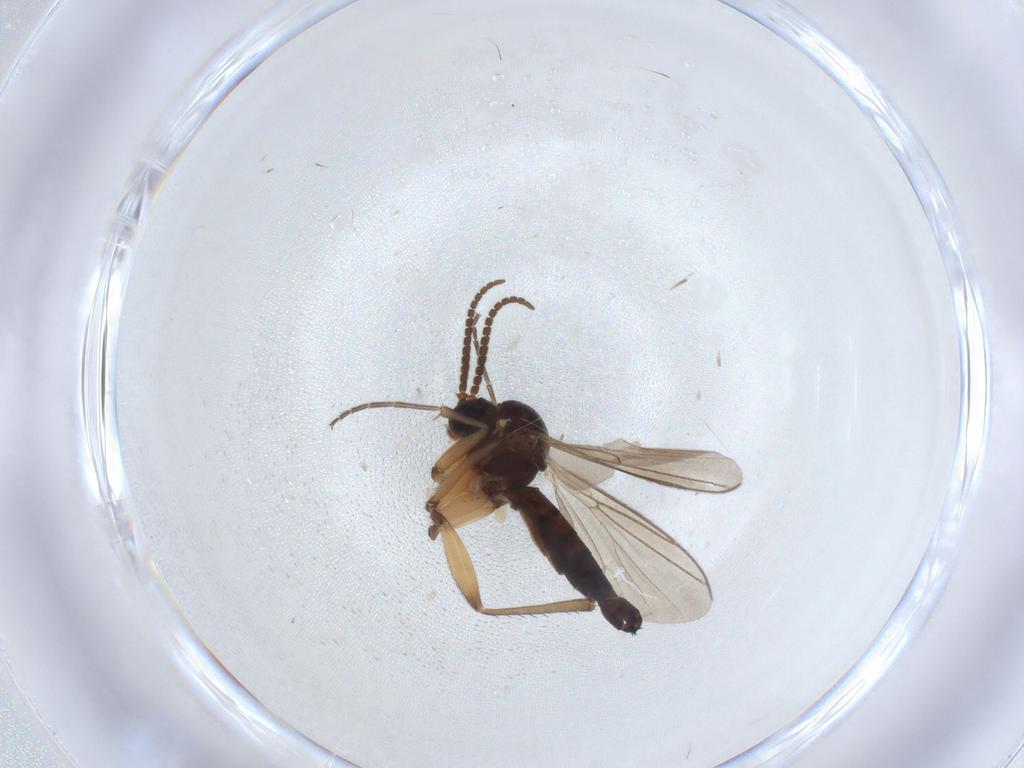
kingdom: Animalia
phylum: Arthropoda
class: Insecta
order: Diptera
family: Mycetophilidae
